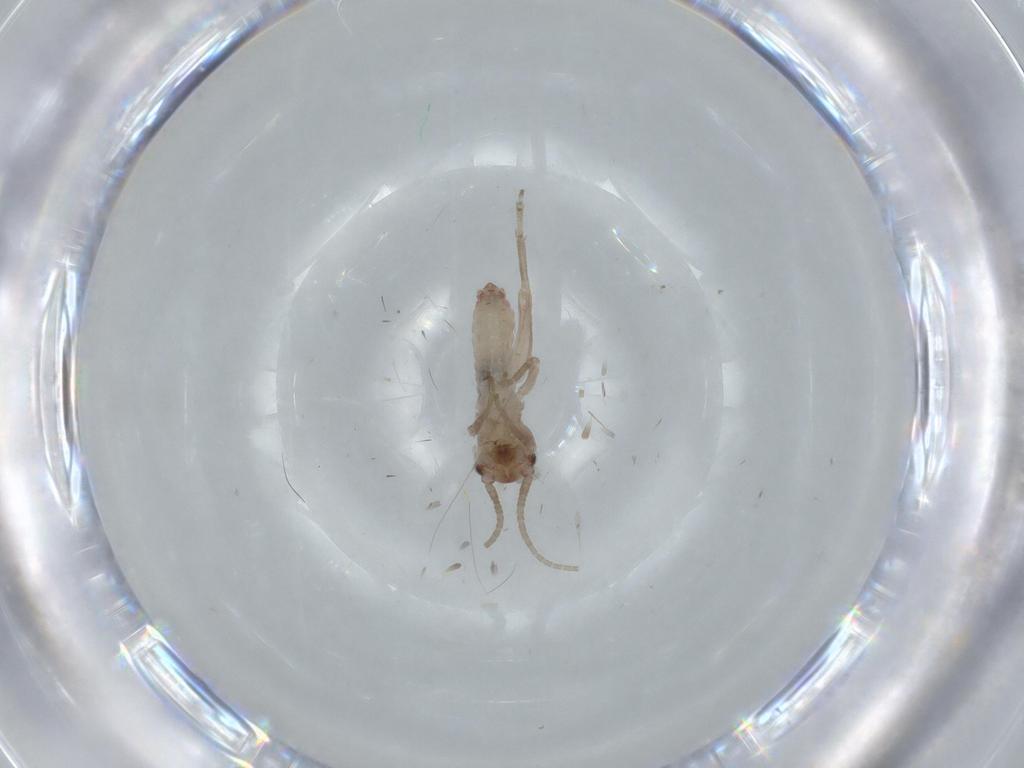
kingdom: Animalia
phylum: Arthropoda
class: Insecta
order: Orthoptera
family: Mogoplistidae
